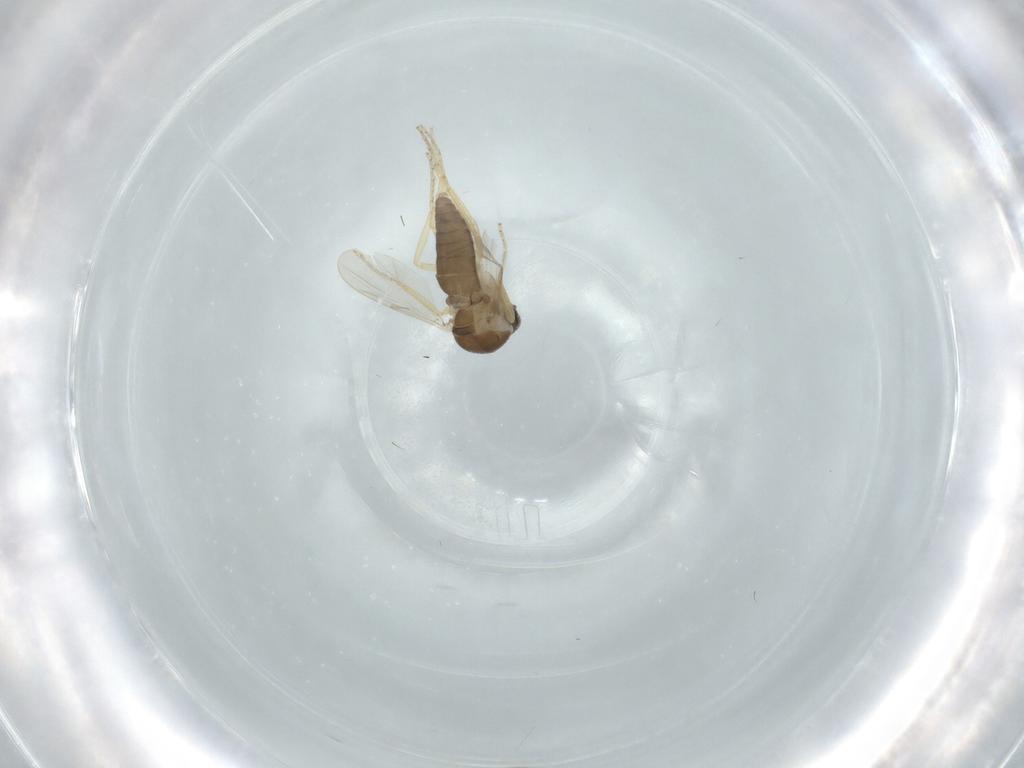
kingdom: Animalia
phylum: Arthropoda
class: Insecta
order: Diptera
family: Ceratopogonidae
